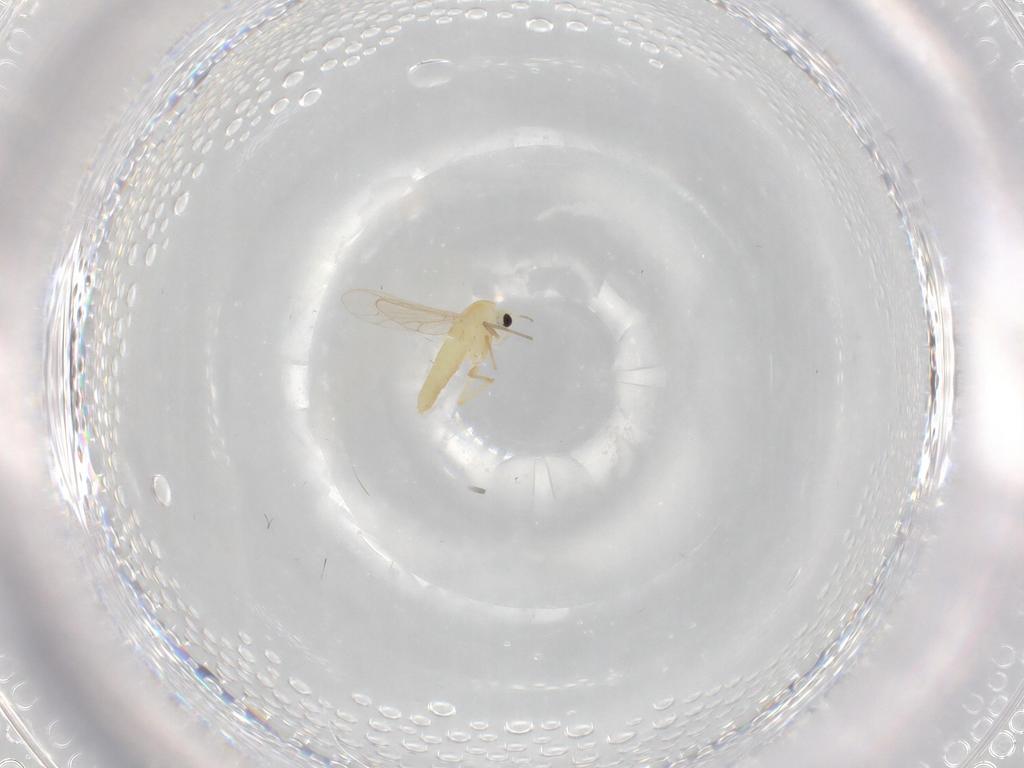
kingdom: Animalia
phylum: Arthropoda
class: Insecta
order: Diptera
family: Chironomidae
